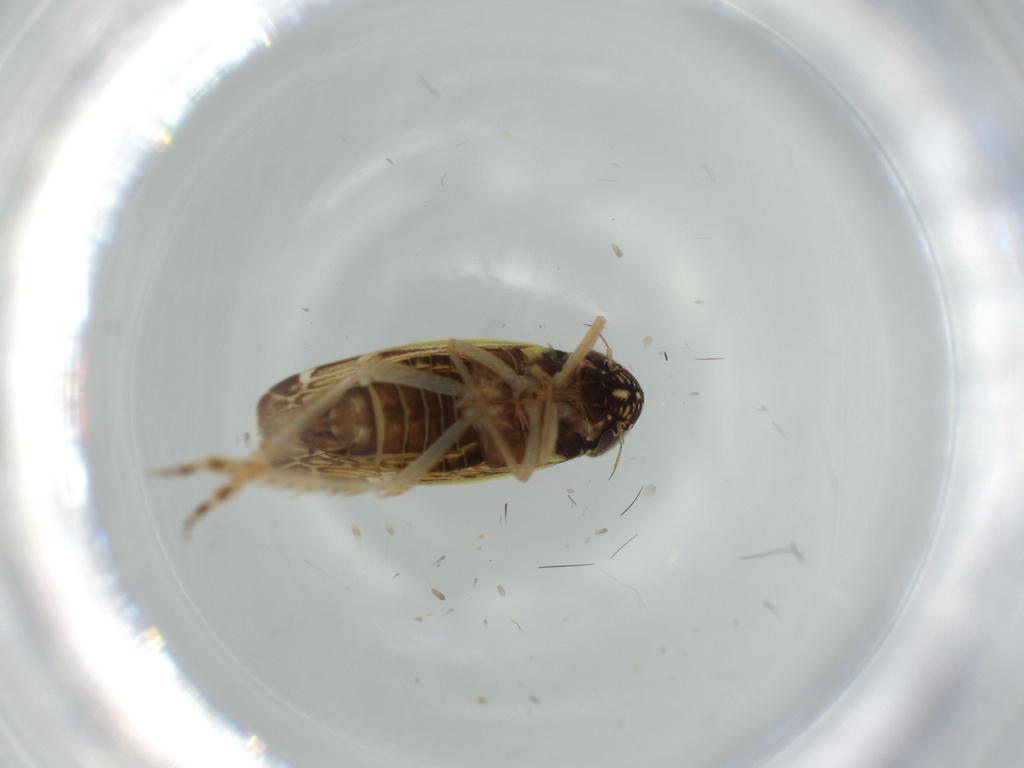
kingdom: Animalia
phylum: Arthropoda
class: Insecta
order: Hemiptera
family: Cicadellidae
